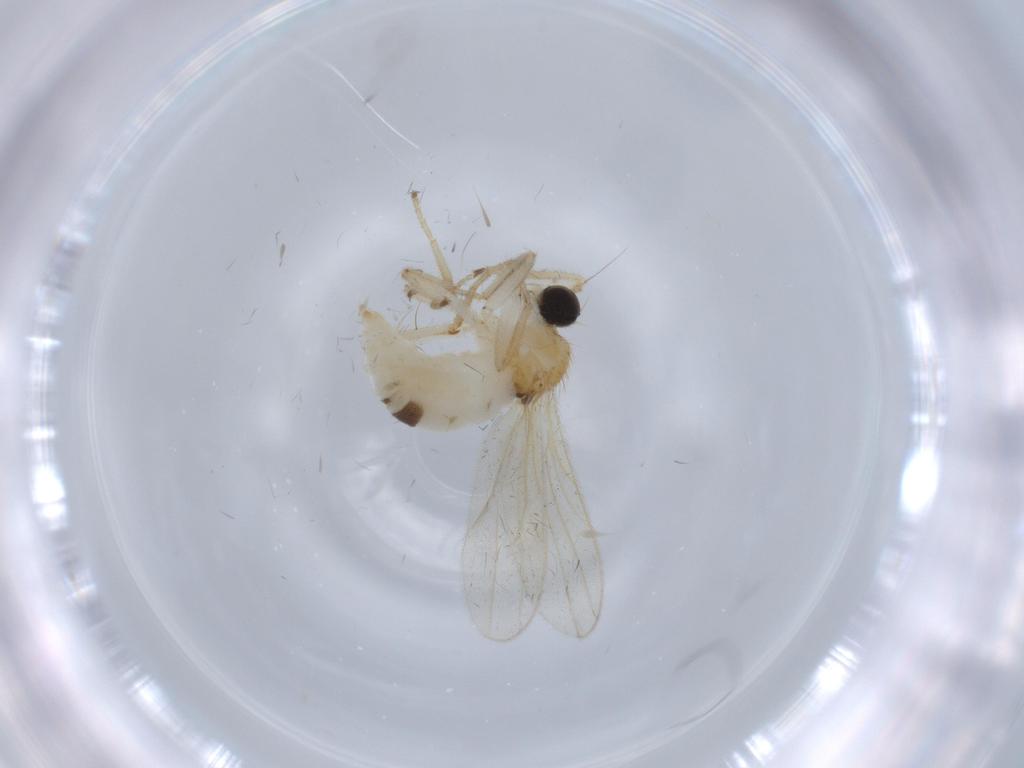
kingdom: Animalia
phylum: Arthropoda
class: Insecta
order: Diptera
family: Hybotidae
